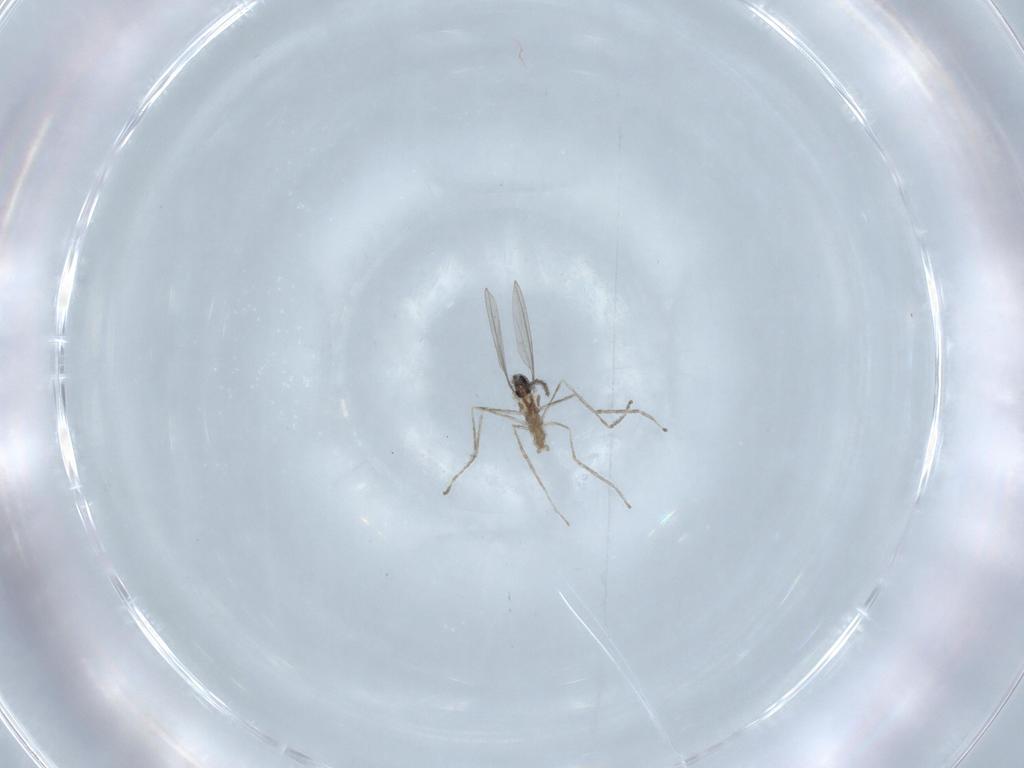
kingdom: Animalia
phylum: Arthropoda
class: Insecta
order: Diptera
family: Cecidomyiidae
